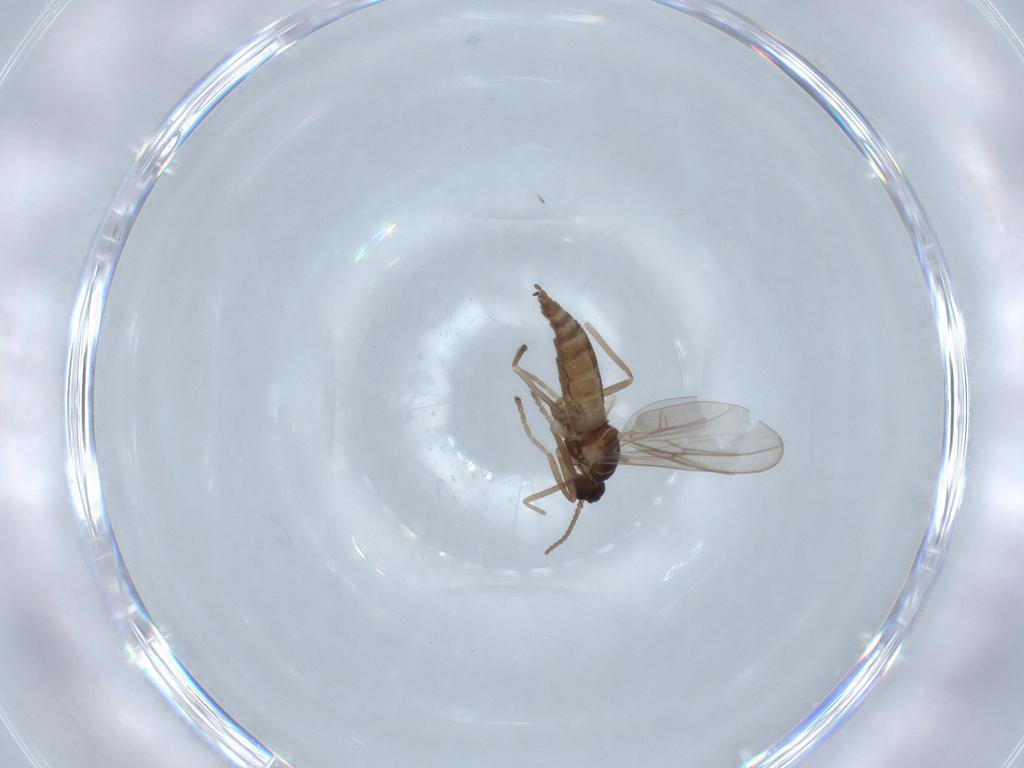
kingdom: Animalia
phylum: Arthropoda
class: Insecta
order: Diptera
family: Cecidomyiidae
